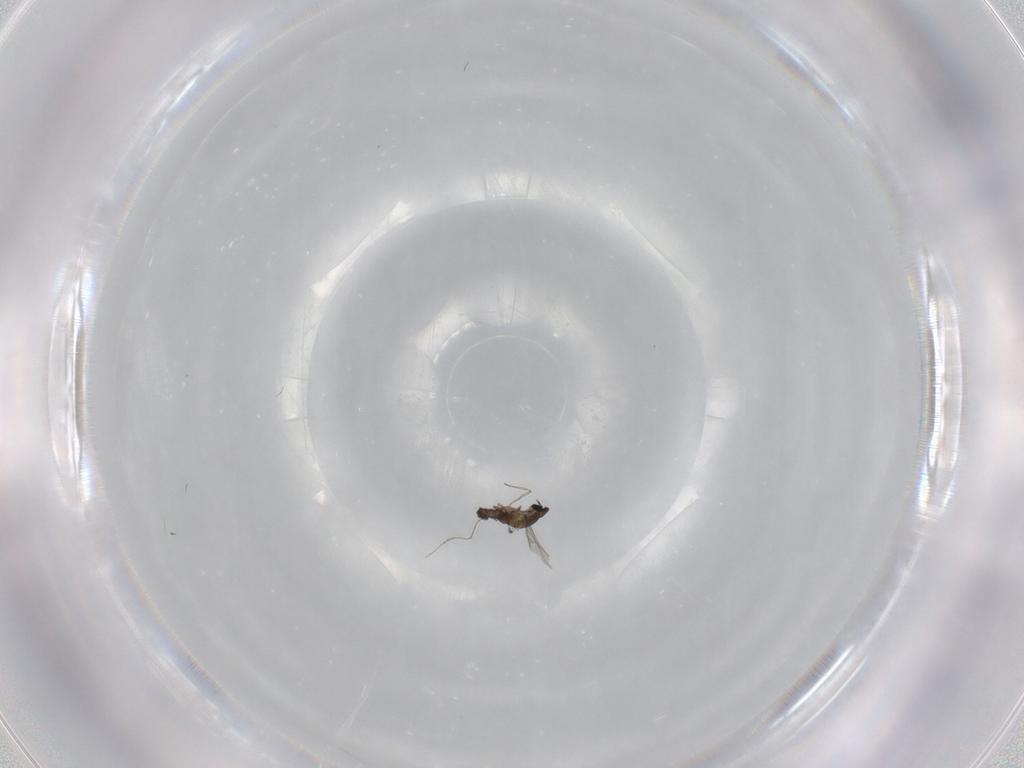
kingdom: Animalia
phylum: Arthropoda
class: Insecta
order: Diptera
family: Cecidomyiidae
